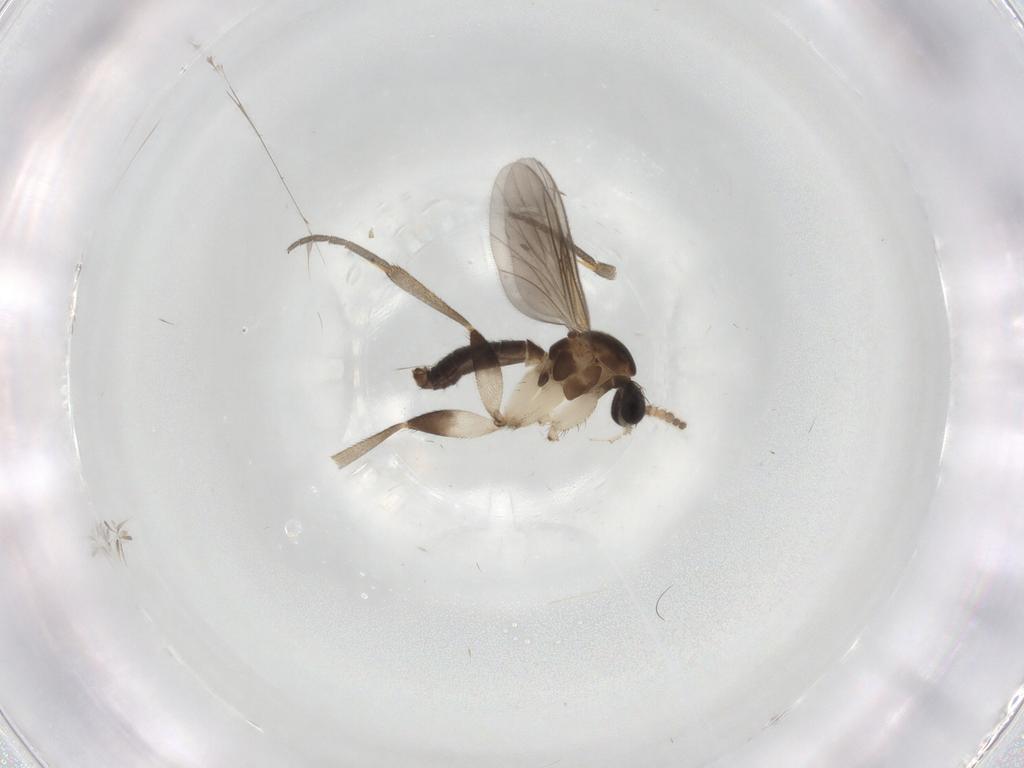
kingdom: Animalia
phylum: Arthropoda
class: Insecta
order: Diptera
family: Mycetophilidae
